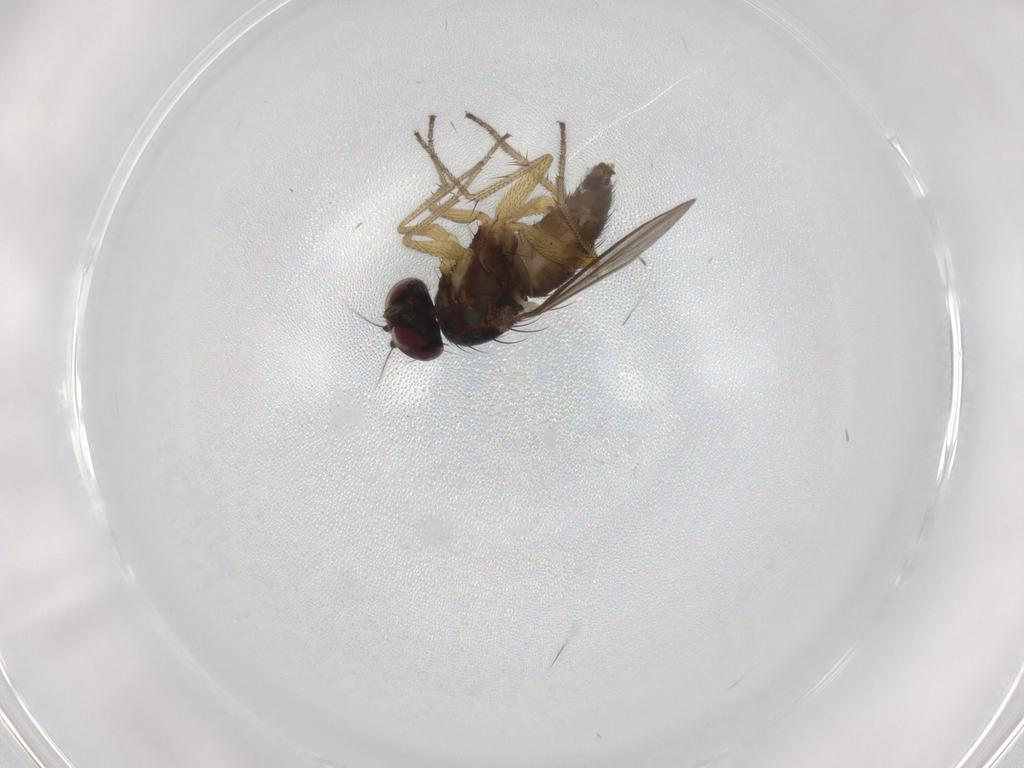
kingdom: Animalia
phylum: Arthropoda
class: Insecta
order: Diptera
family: Dolichopodidae
